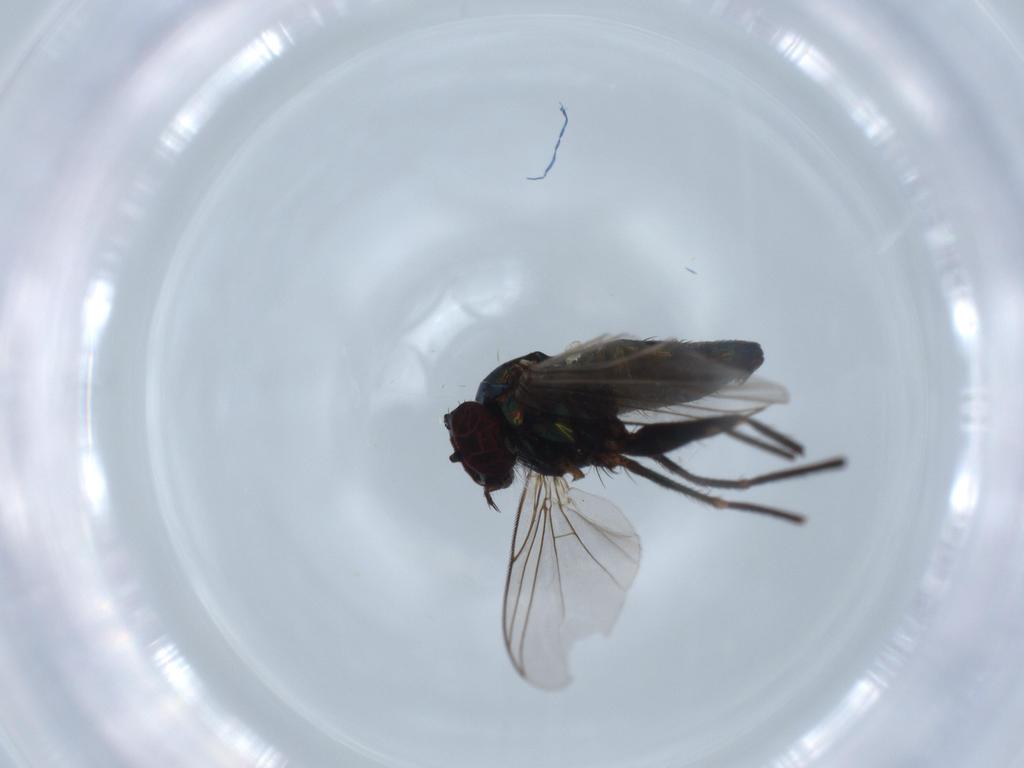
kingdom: Animalia
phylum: Arthropoda
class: Insecta
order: Diptera
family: Dolichopodidae
